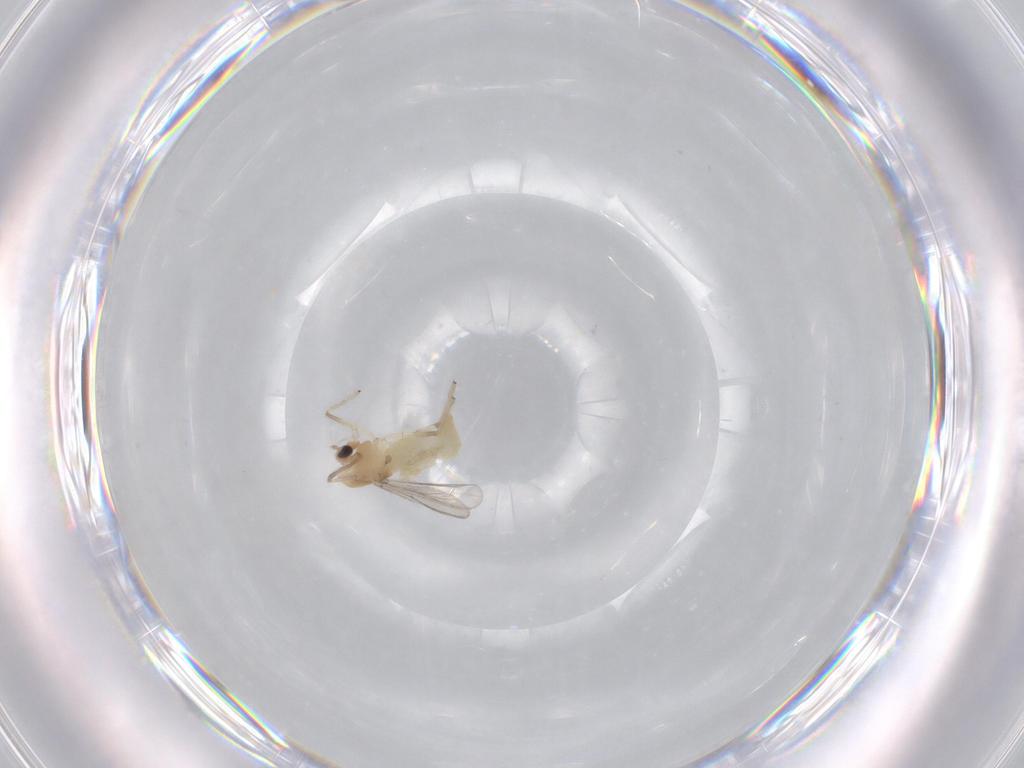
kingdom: Animalia
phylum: Arthropoda
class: Insecta
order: Diptera
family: Chironomidae
